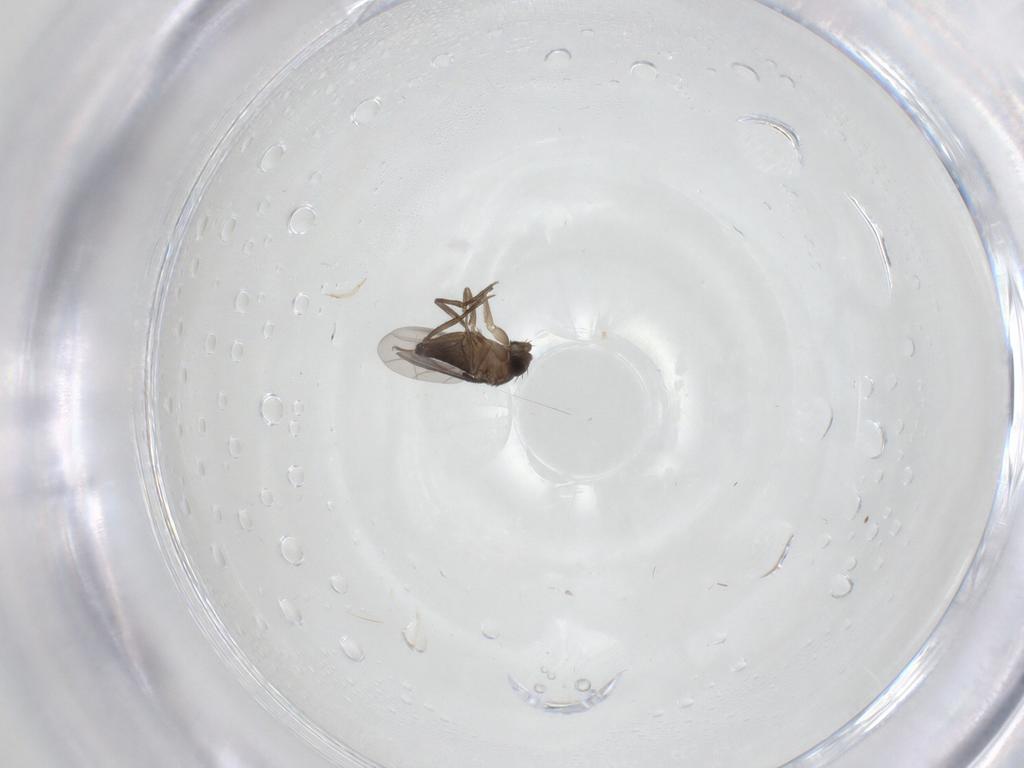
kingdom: Animalia
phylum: Arthropoda
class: Insecta
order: Diptera
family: Phoridae
